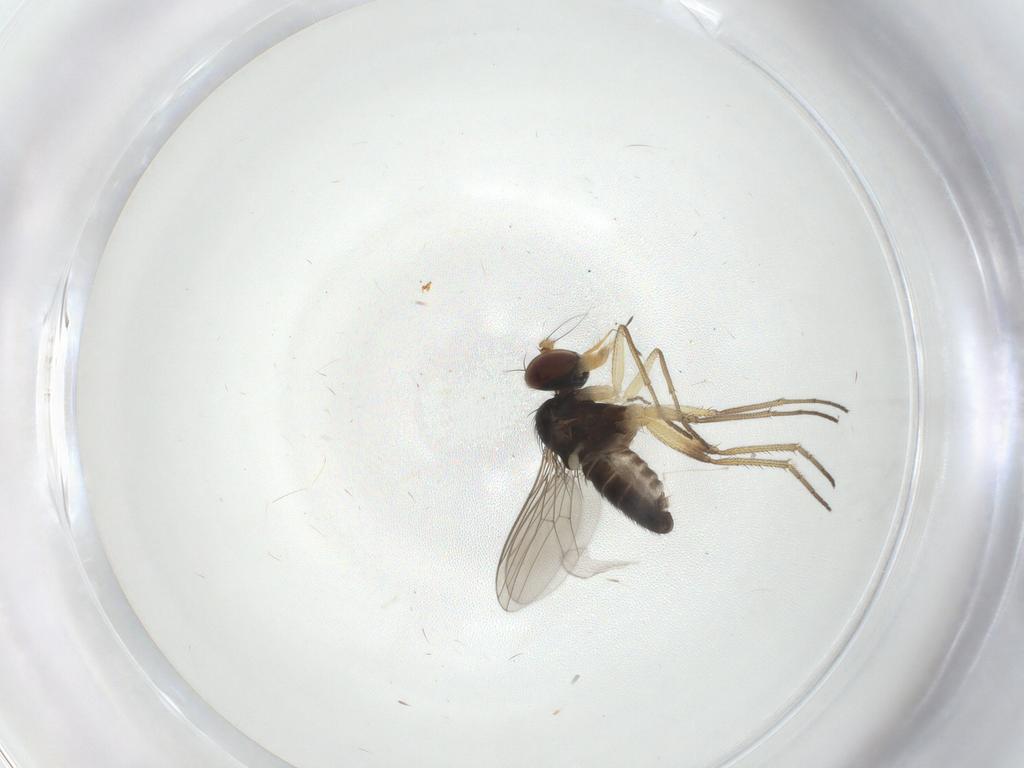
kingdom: Animalia
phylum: Arthropoda
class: Insecta
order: Diptera
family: Dolichopodidae
